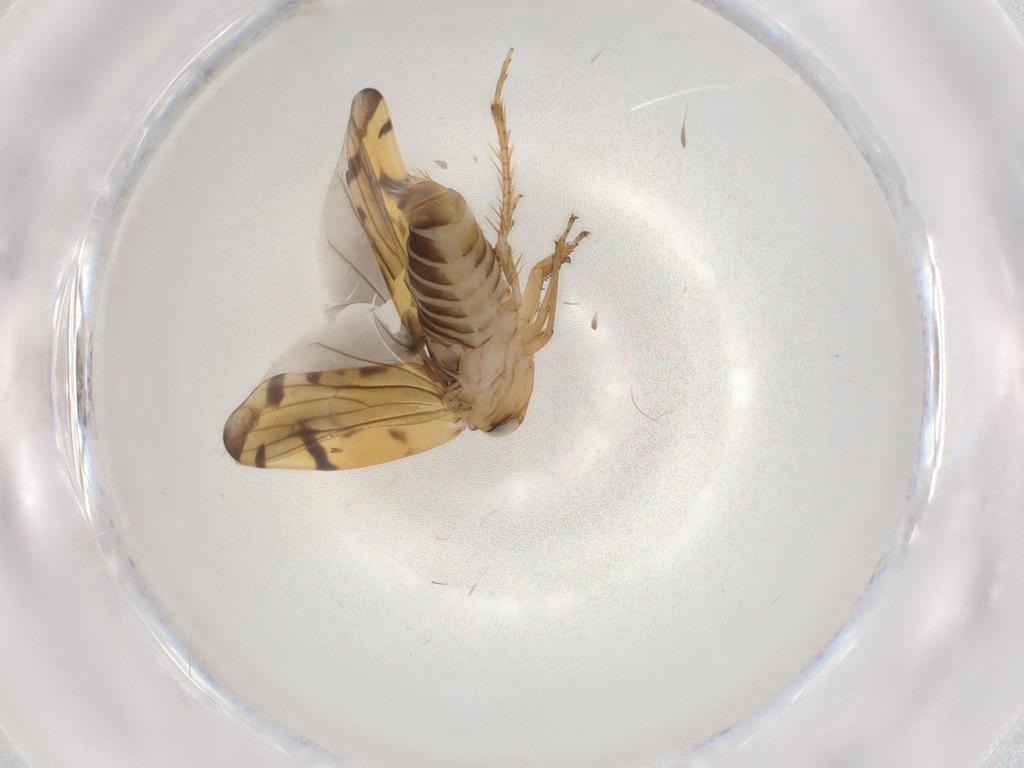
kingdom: Animalia
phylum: Arthropoda
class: Insecta
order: Hemiptera
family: Cicadellidae
